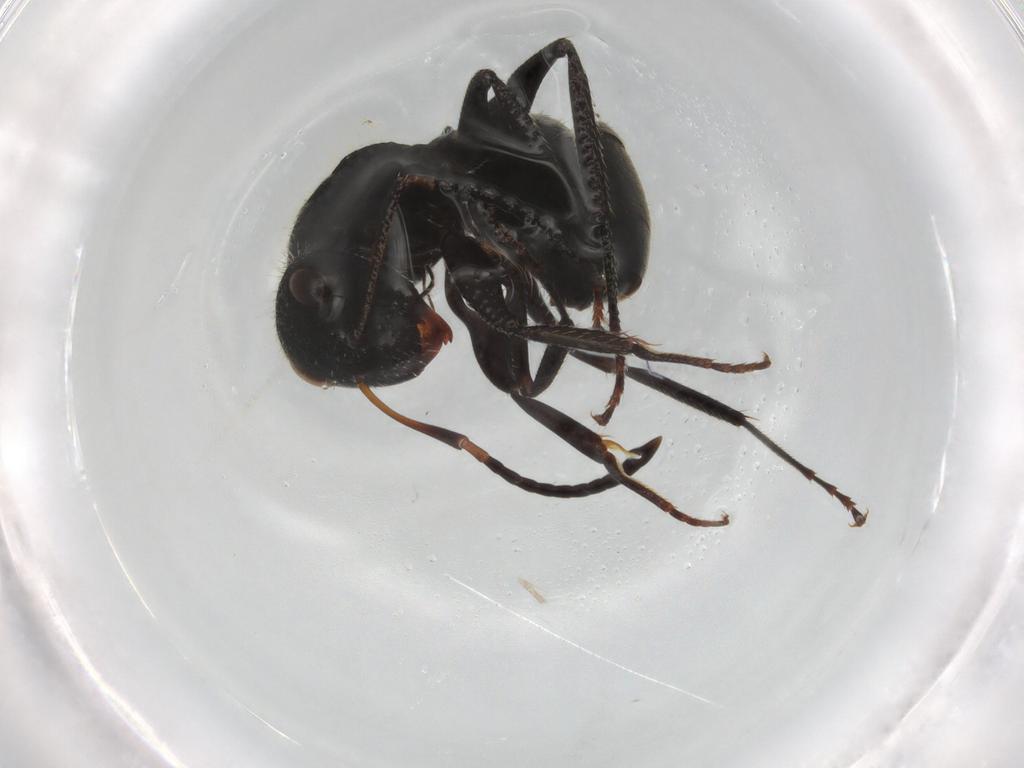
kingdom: Animalia
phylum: Arthropoda
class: Insecta
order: Hymenoptera
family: Formicidae
